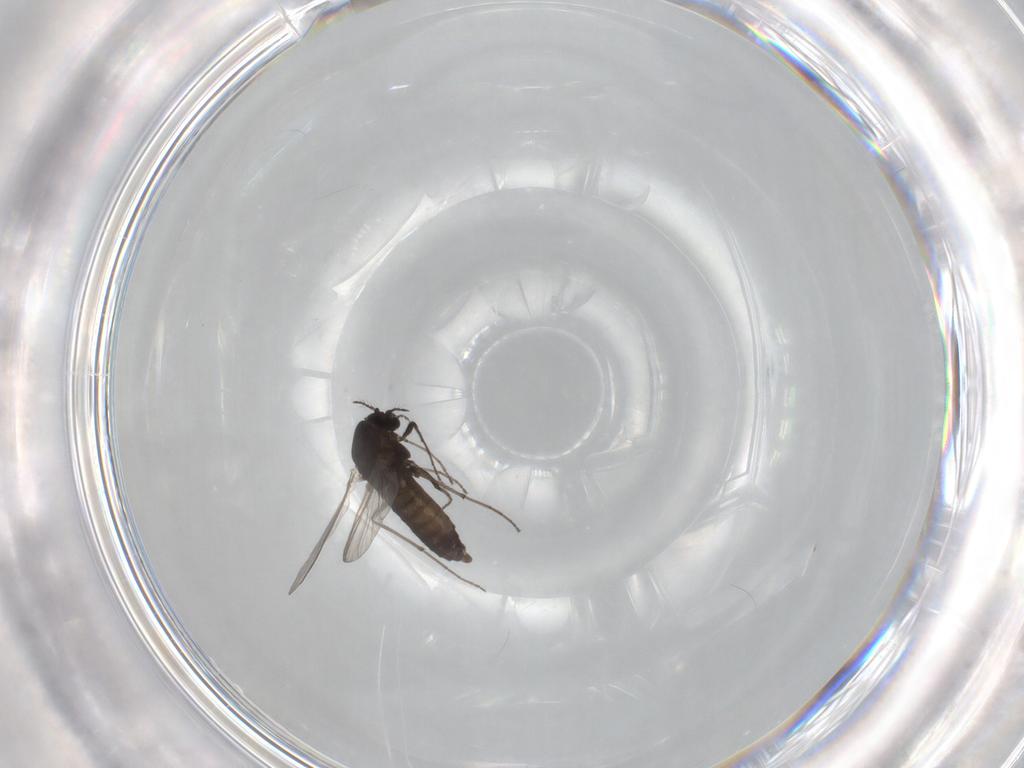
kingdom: Animalia
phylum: Arthropoda
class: Insecta
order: Diptera
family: Chironomidae
